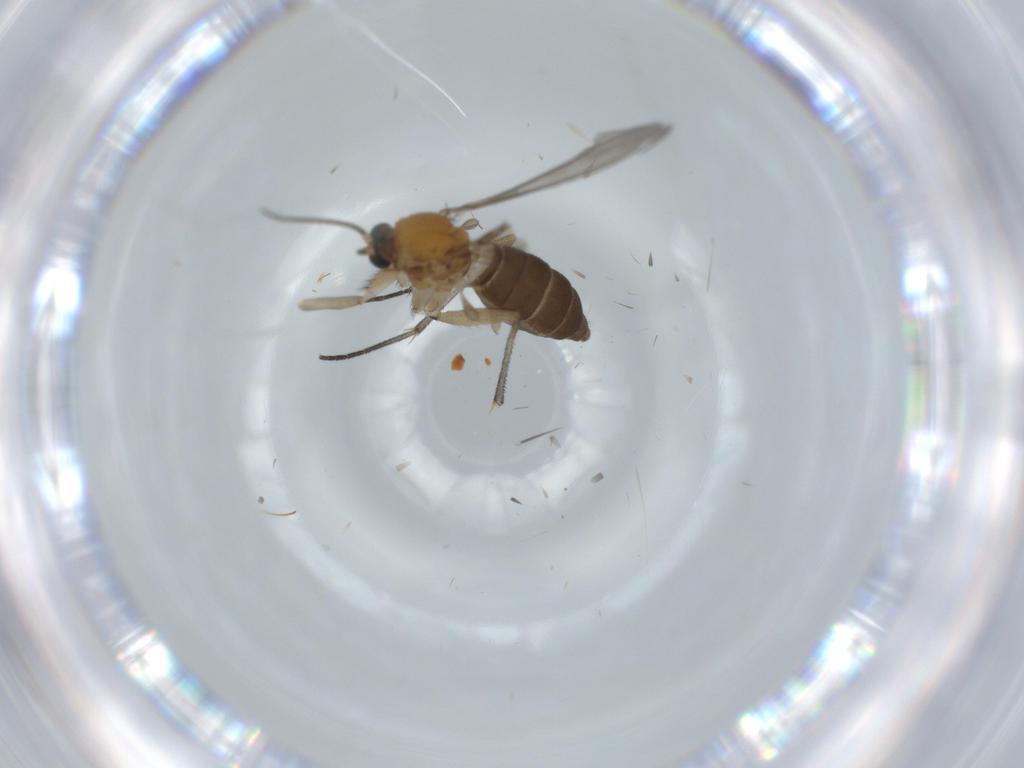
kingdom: Animalia
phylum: Arthropoda
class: Insecta
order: Diptera
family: Sciaridae
